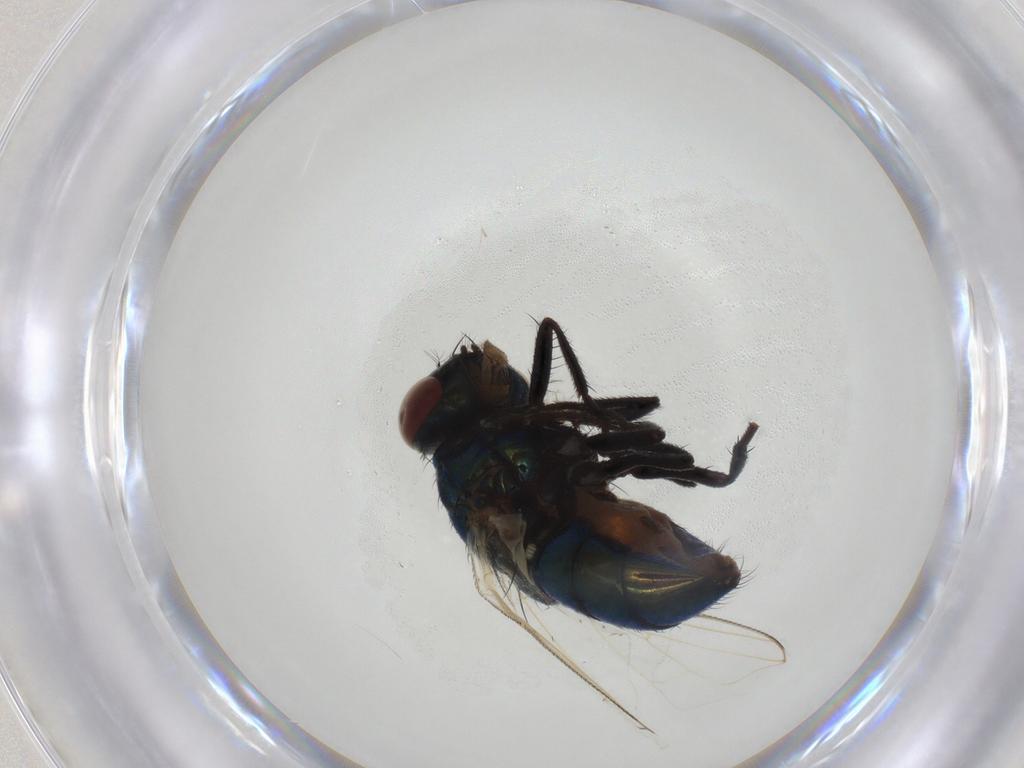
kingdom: Animalia
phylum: Arthropoda
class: Insecta
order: Diptera
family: Muscidae
